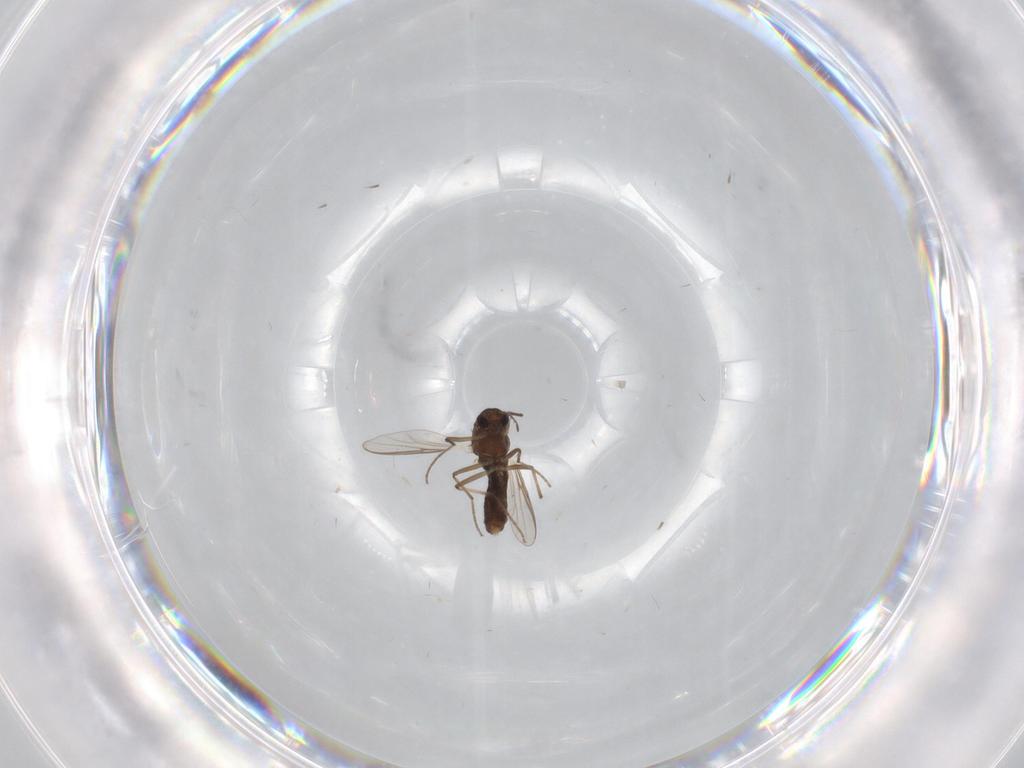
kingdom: Animalia
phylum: Arthropoda
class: Insecta
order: Diptera
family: Chironomidae
